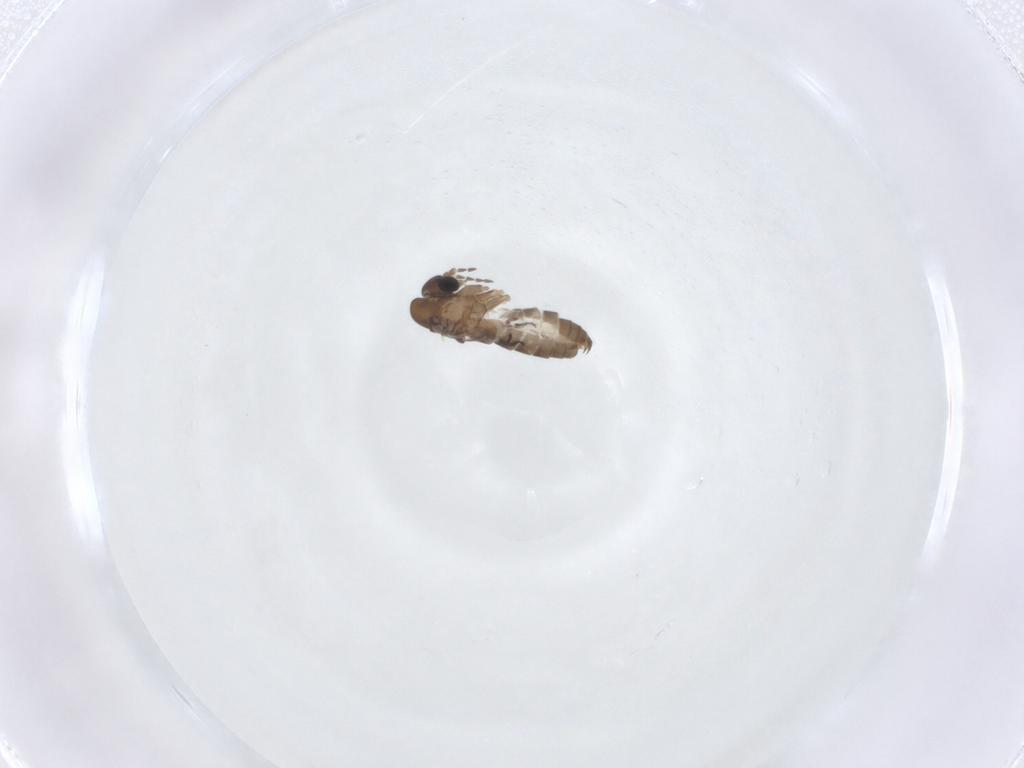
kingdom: Animalia
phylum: Arthropoda
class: Insecta
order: Diptera
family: Psychodidae
